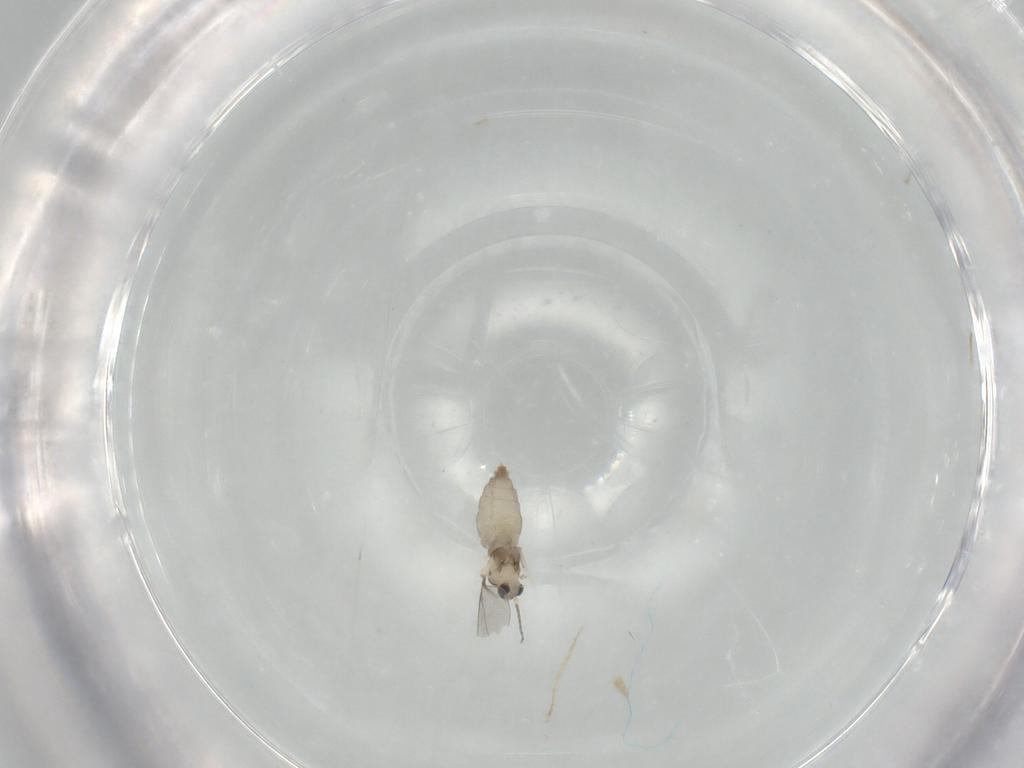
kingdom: Animalia
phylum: Arthropoda
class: Insecta
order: Diptera
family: Cecidomyiidae
